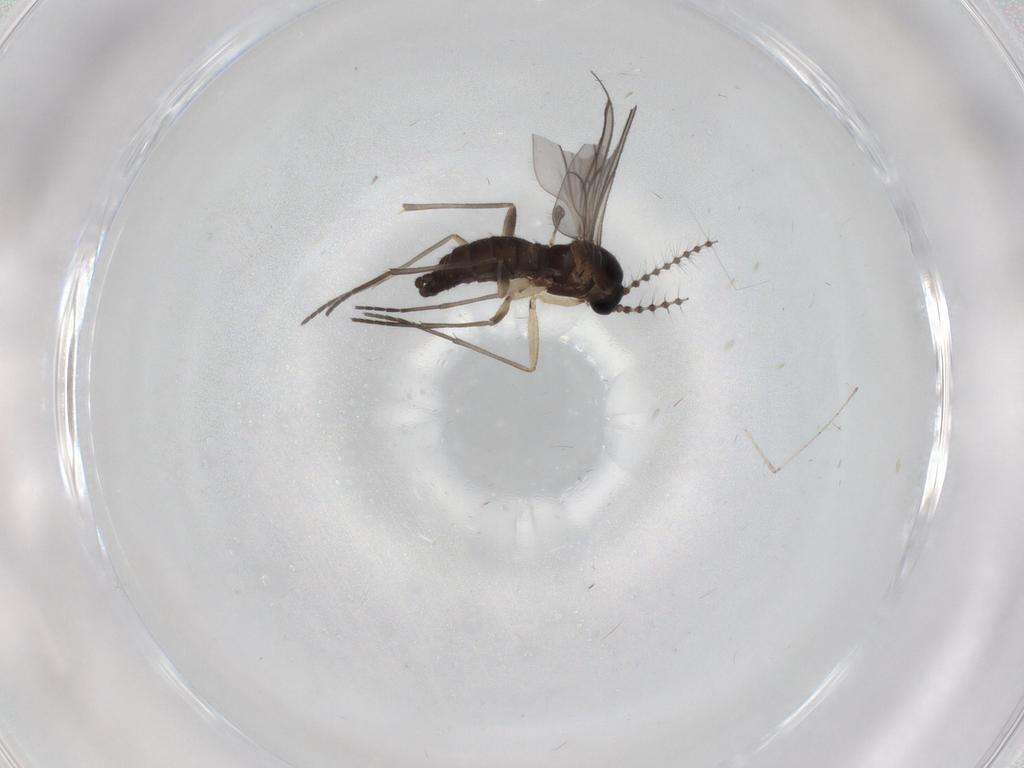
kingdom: Animalia
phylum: Arthropoda
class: Insecta
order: Diptera
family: Sciaridae
